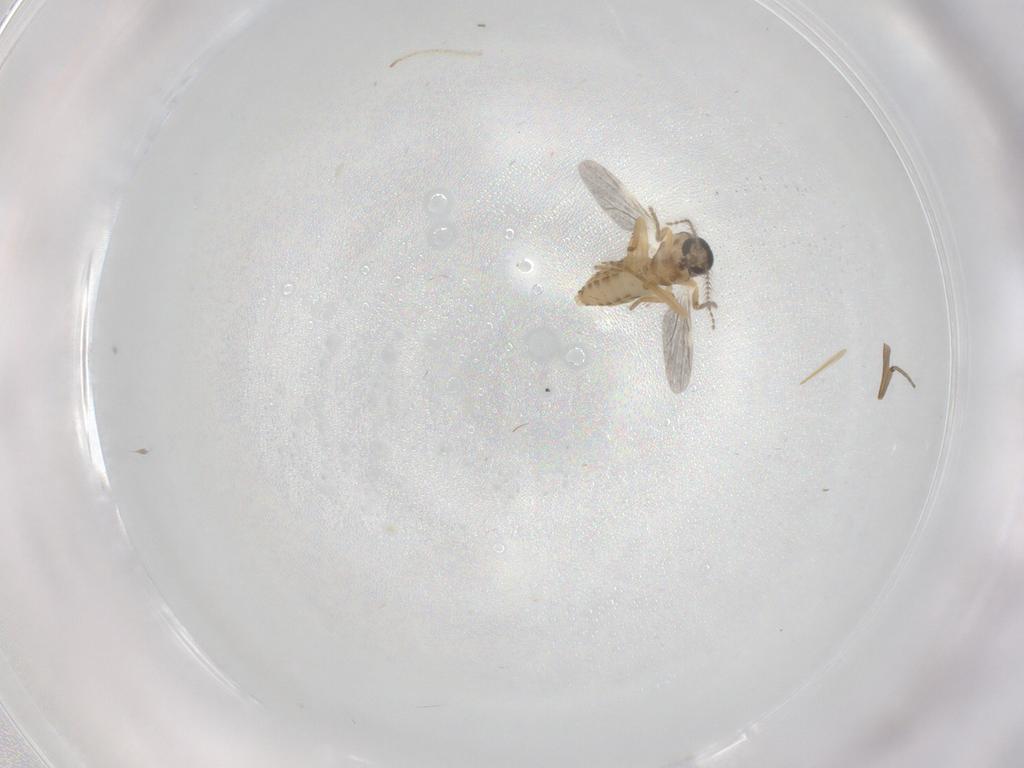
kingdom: Animalia
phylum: Arthropoda
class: Insecta
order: Diptera
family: Ceratopogonidae
